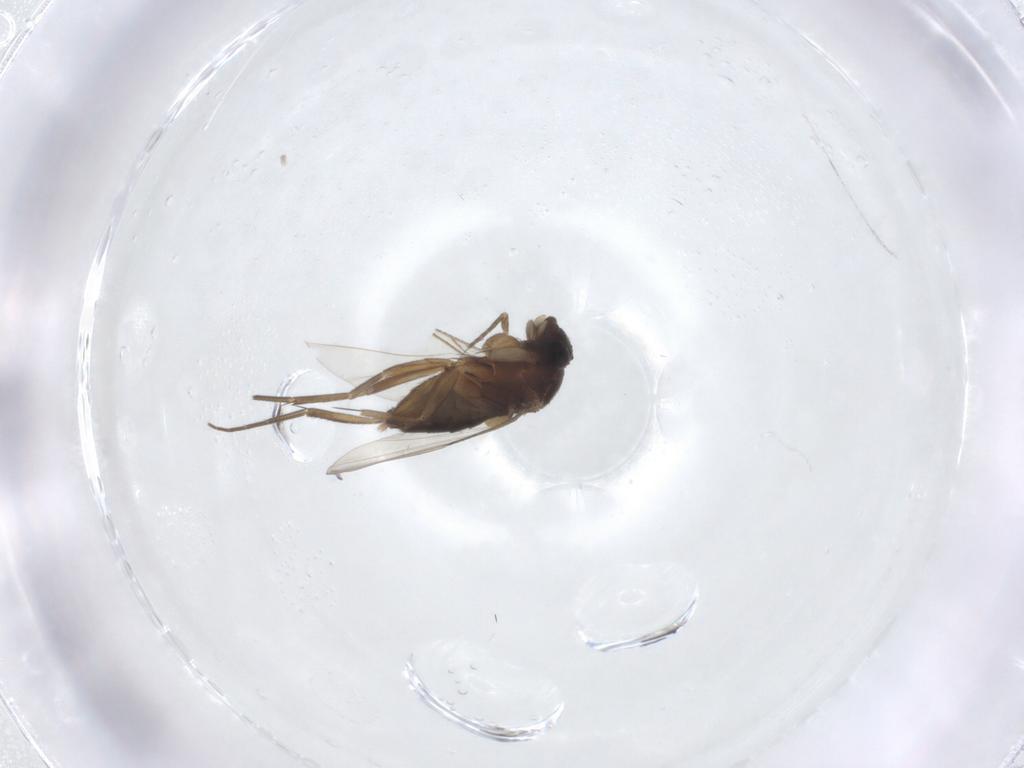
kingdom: Animalia
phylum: Arthropoda
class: Insecta
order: Diptera
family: Phoridae
